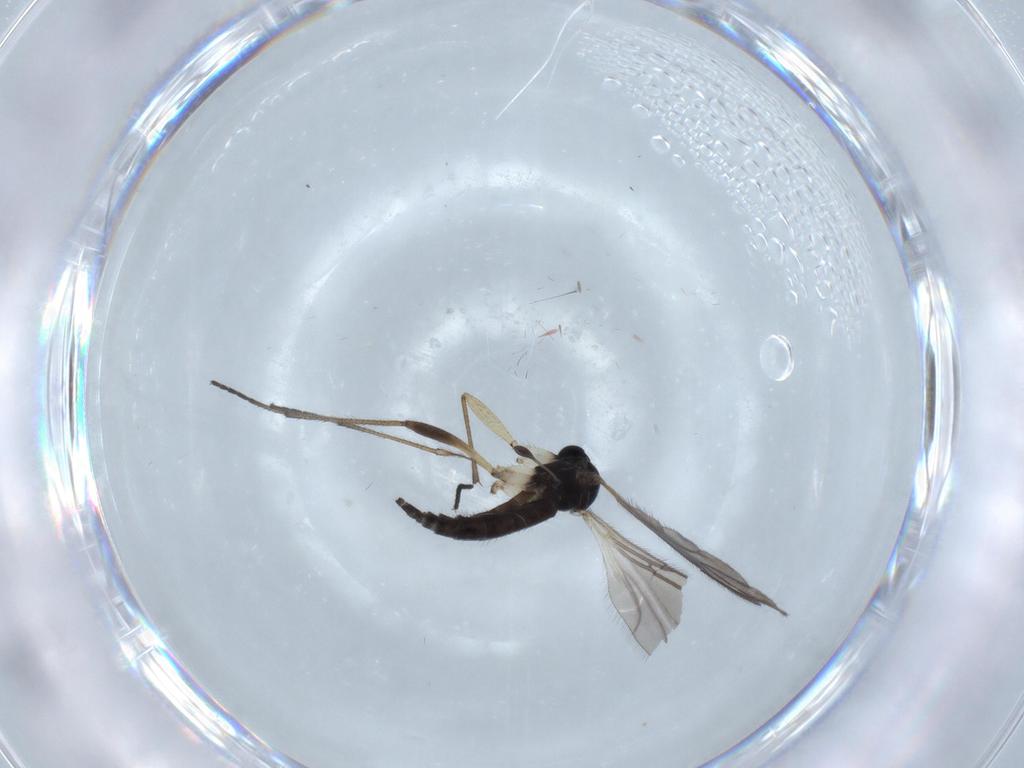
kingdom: Animalia
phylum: Arthropoda
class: Insecta
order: Diptera
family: Sciaridae
